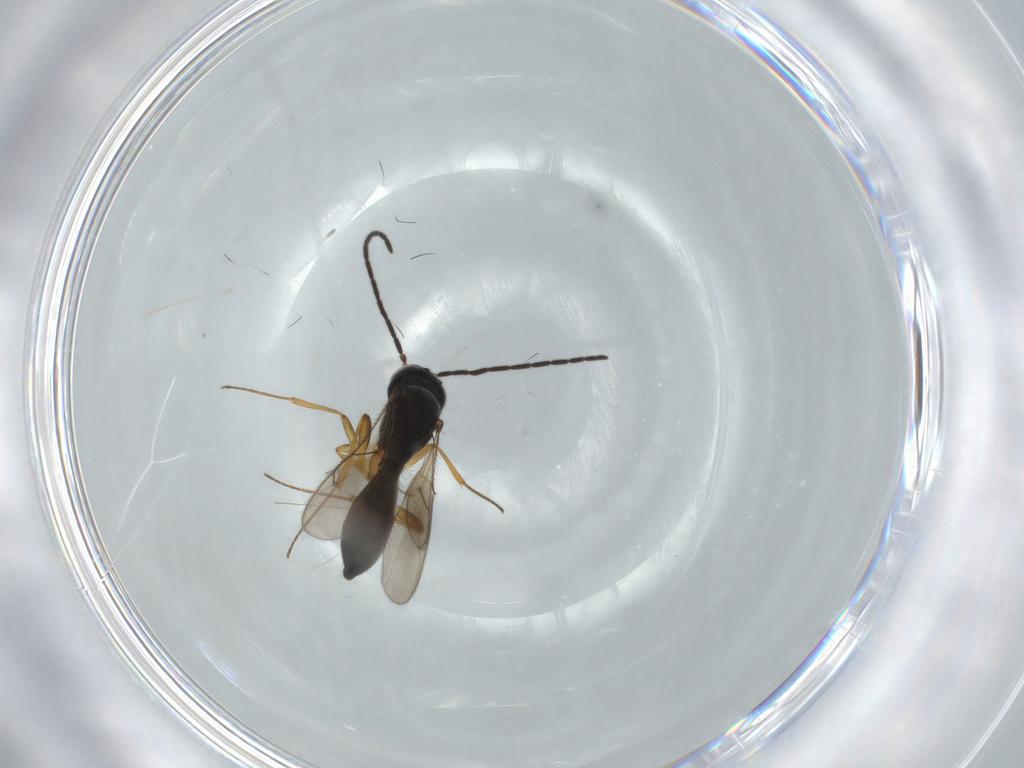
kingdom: Animalia
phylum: Arthropoda
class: Insecta
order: Hymenoptera
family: Scelionidae
